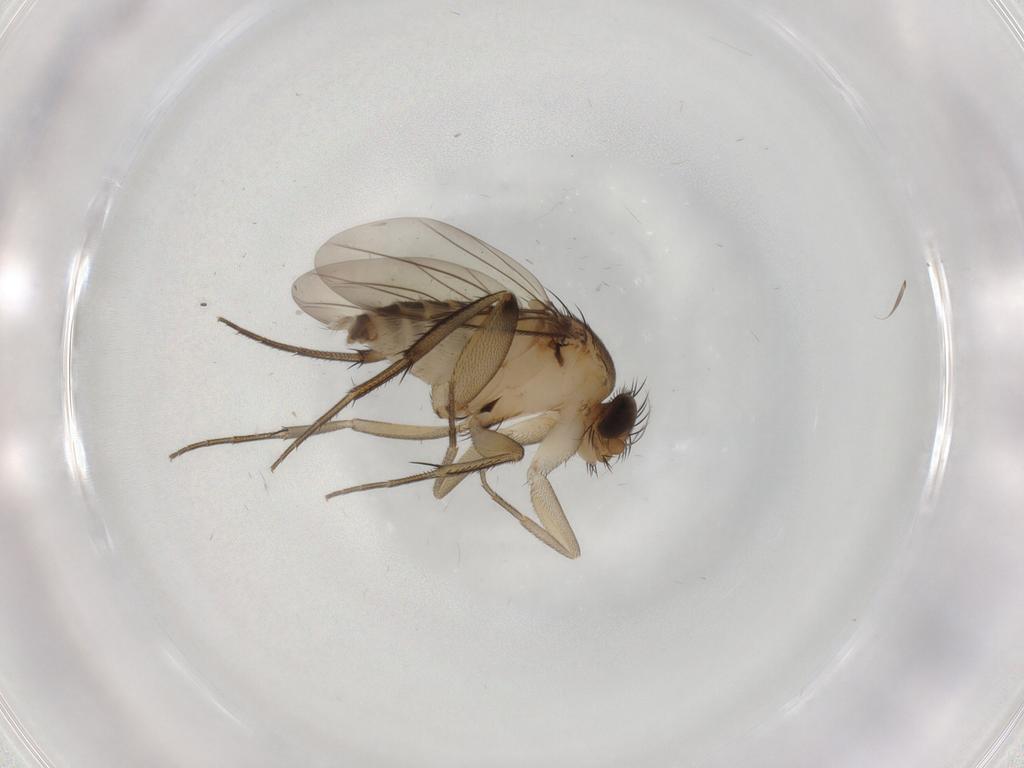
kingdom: Animalia
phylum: Arthropoda
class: Insecta
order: Diptera
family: Phoridae
